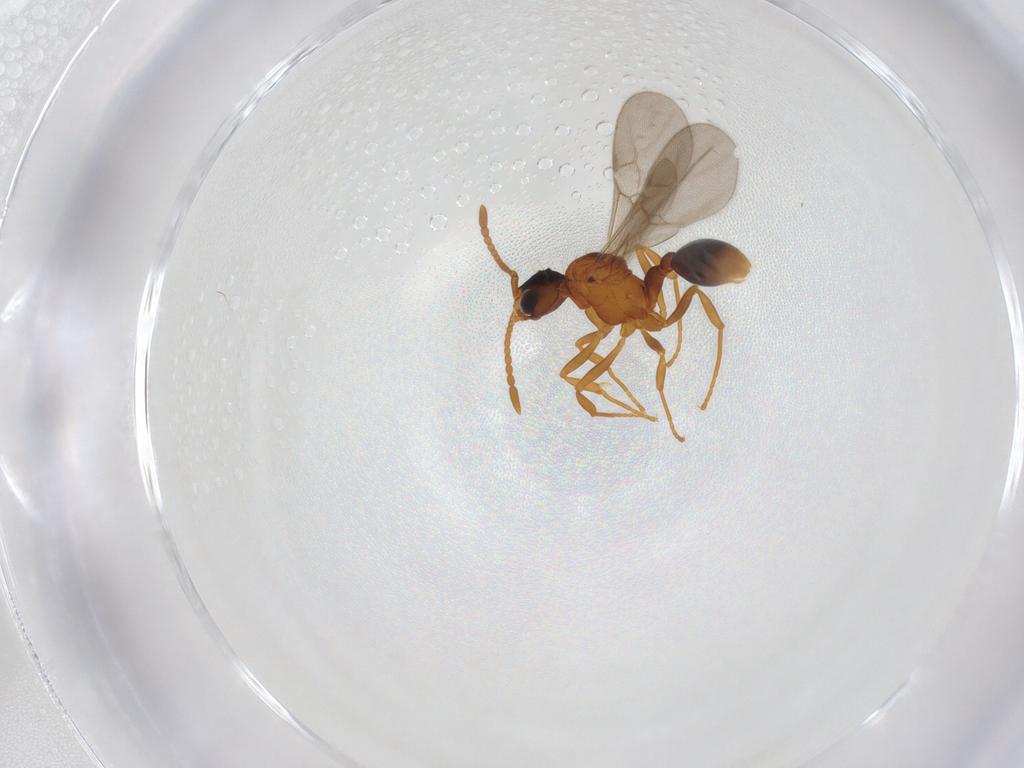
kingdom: Animalia
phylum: Arthropoda
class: Insecta
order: Hymenoptera
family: Formicidae
